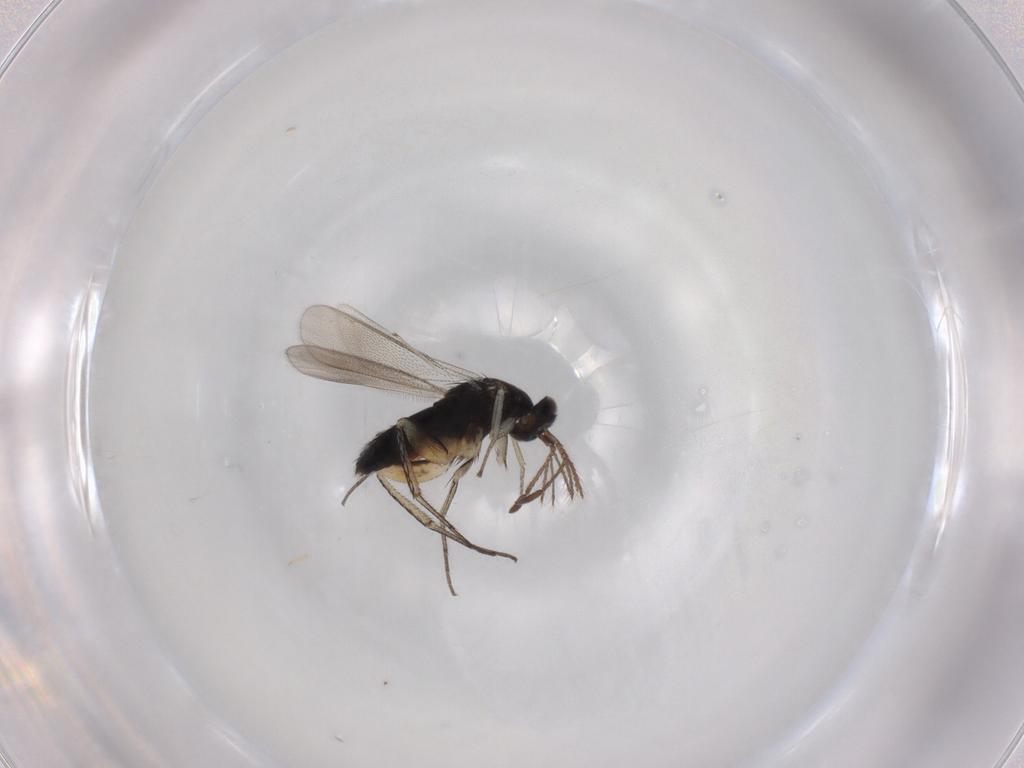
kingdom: Animalia
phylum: Arthropoda
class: Insecta
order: Hymenoptera
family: Eulophidae
